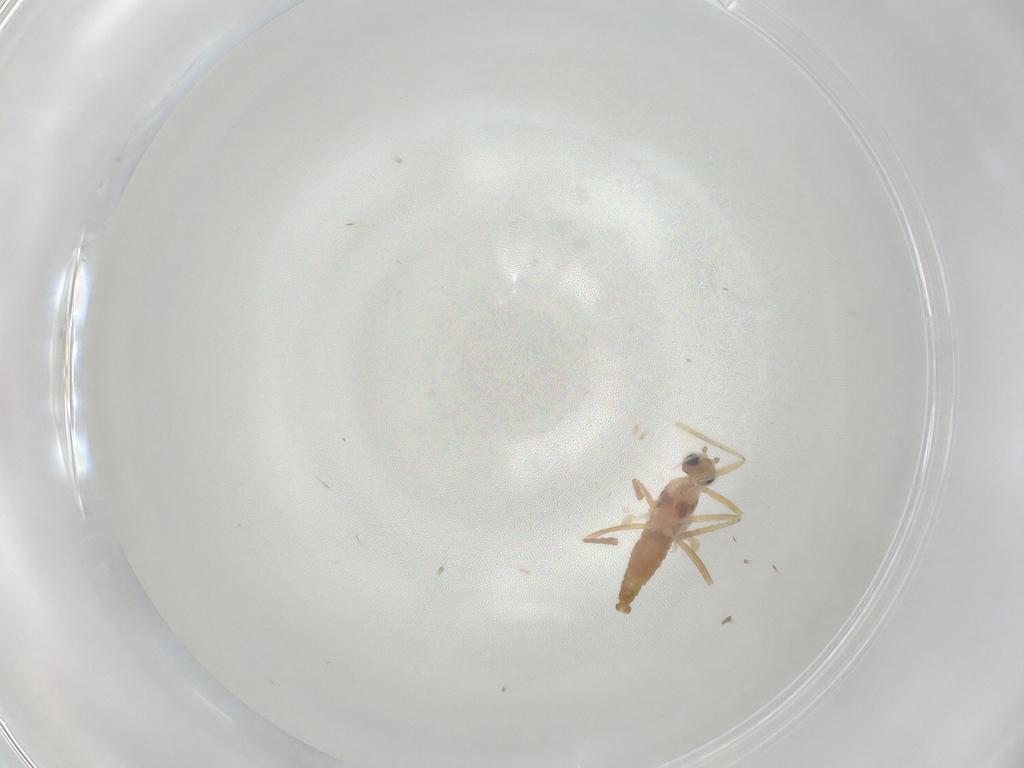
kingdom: Animalia
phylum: Arthropoda
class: Insecta
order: Diptera
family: Cecidomyiidae
